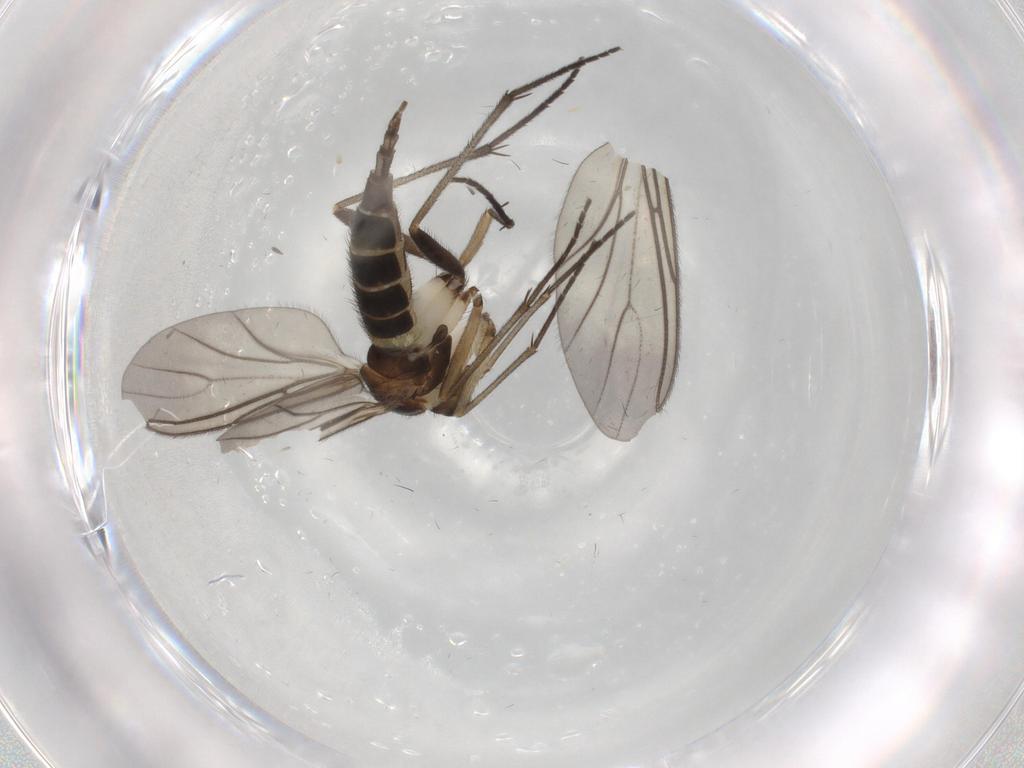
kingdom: Animalia
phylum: Arthropoda
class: Insecta
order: Diptera
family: Sciaridae
